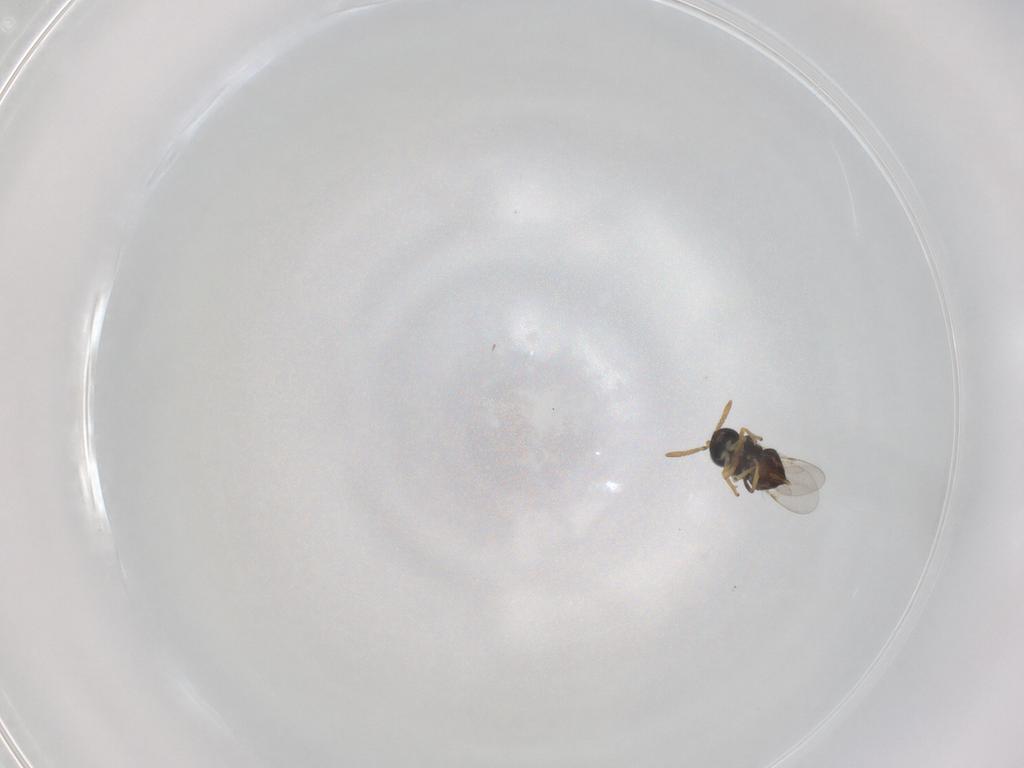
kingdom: Animalia
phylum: Arthropoda
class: Insecta
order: Hymenoptera
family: Encyrtidae
